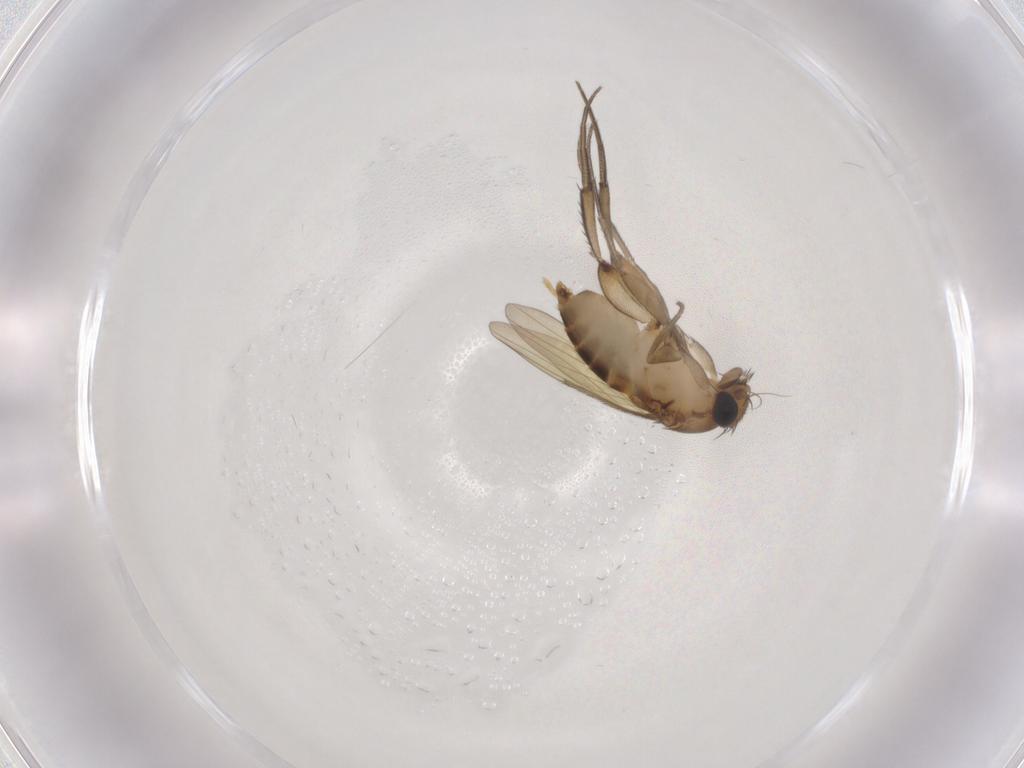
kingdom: Animalia
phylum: Arthropoda
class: Insecta
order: Diptera
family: Phoridae
